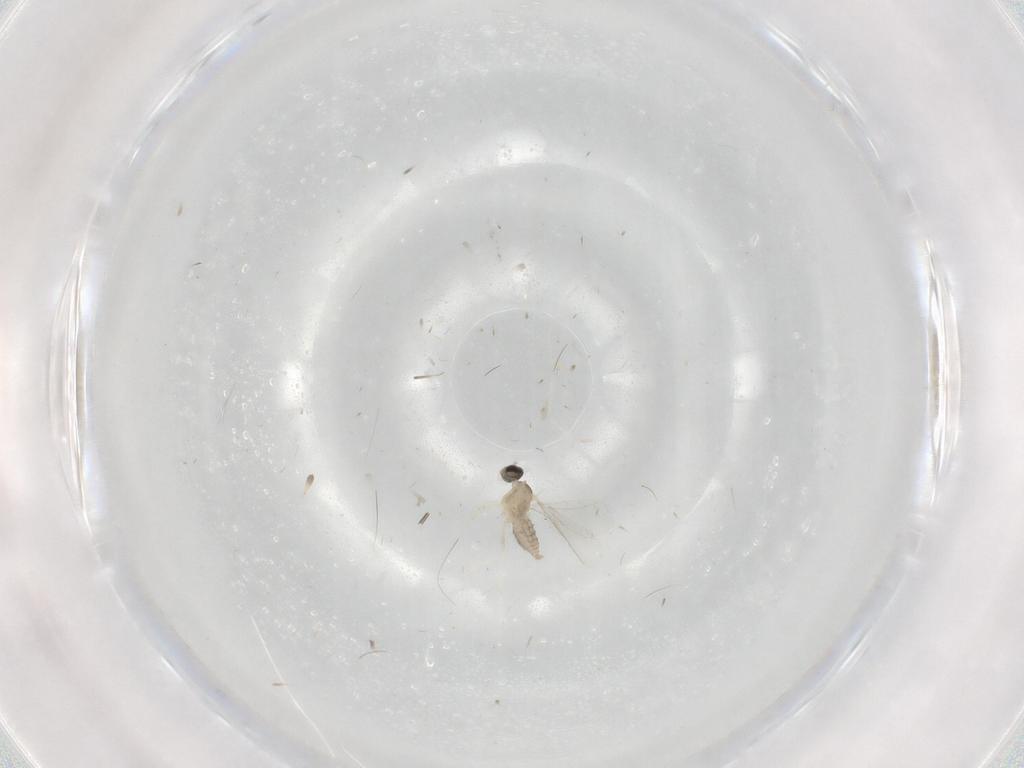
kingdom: Animalia
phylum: Arthropoda
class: Insecta
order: Diptera
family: Cecidomyiidae
